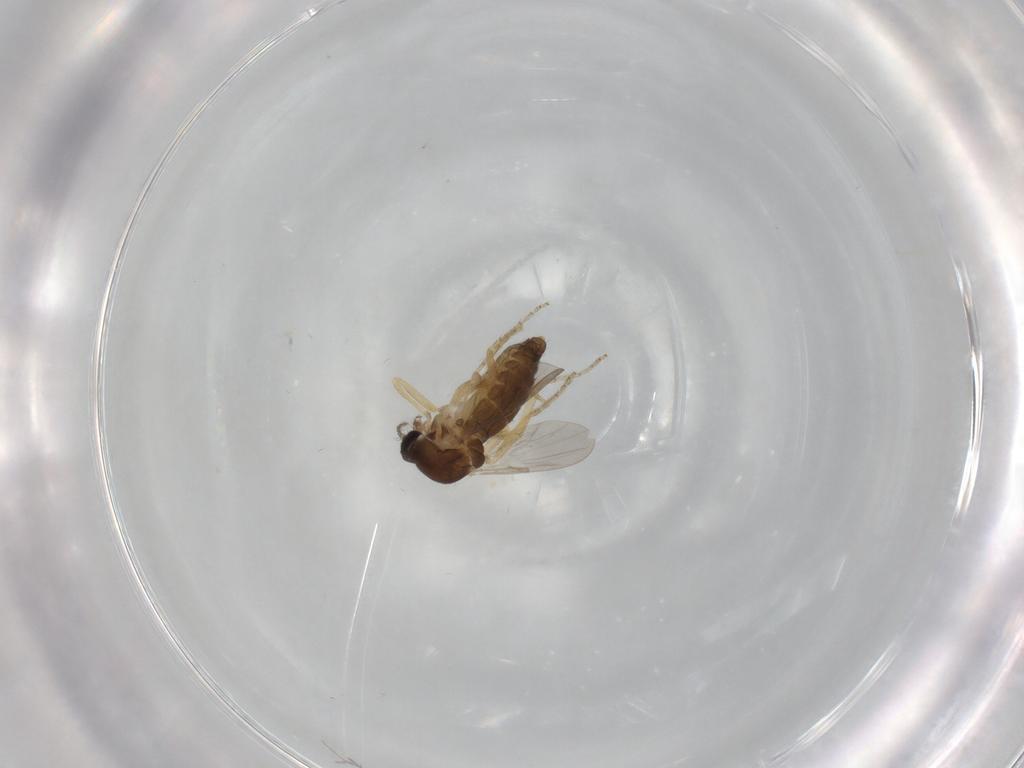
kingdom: Animalia
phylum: Arthropoda
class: Insecta
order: Diptera
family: Ceratopogonidae
